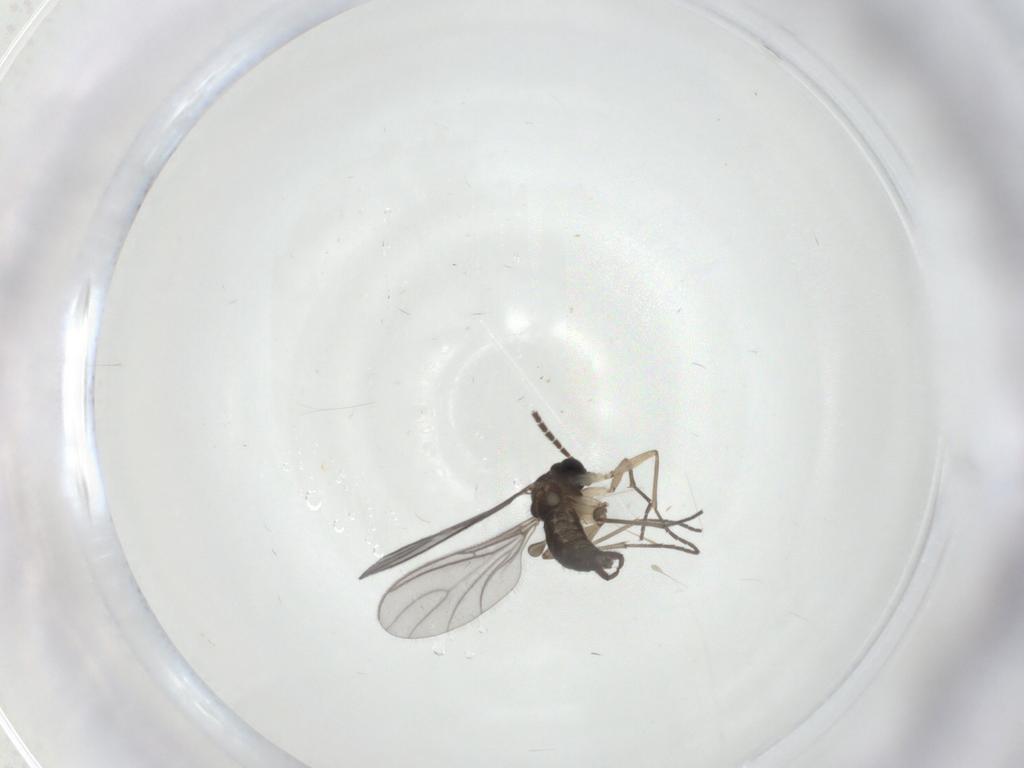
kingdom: Animalia
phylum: Arthropoda
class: Insecta
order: Diptera
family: Sciaridae
